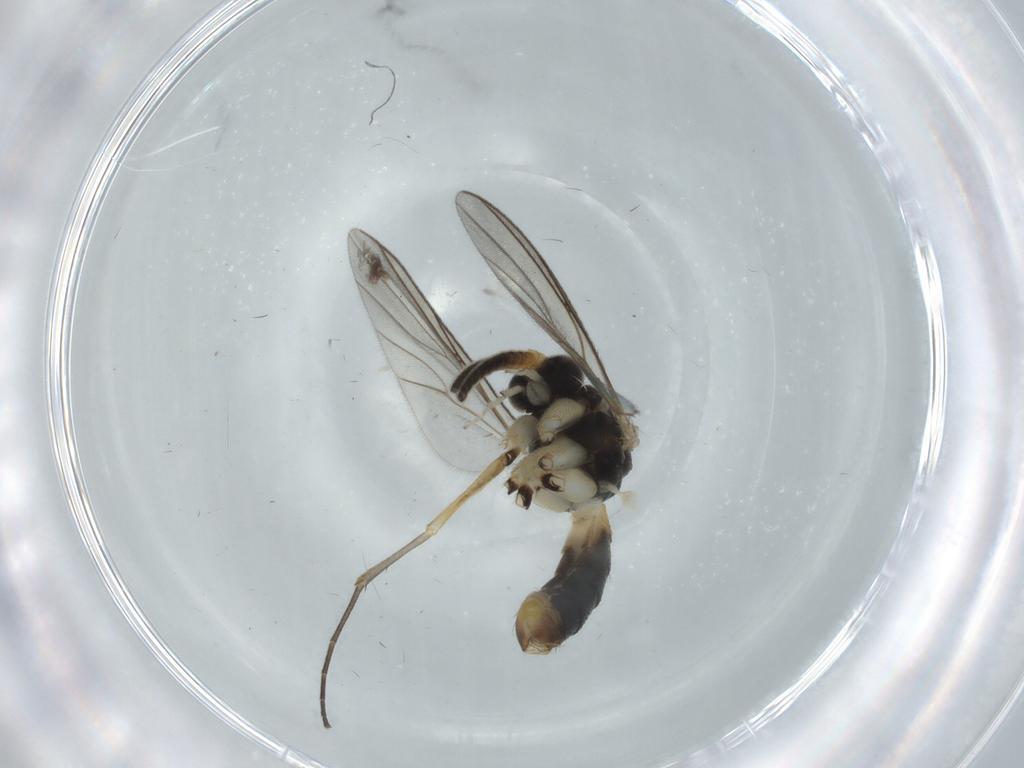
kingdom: Animalia
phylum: Arthropoda
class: Insecta
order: Diptera
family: Mycetophilidae
